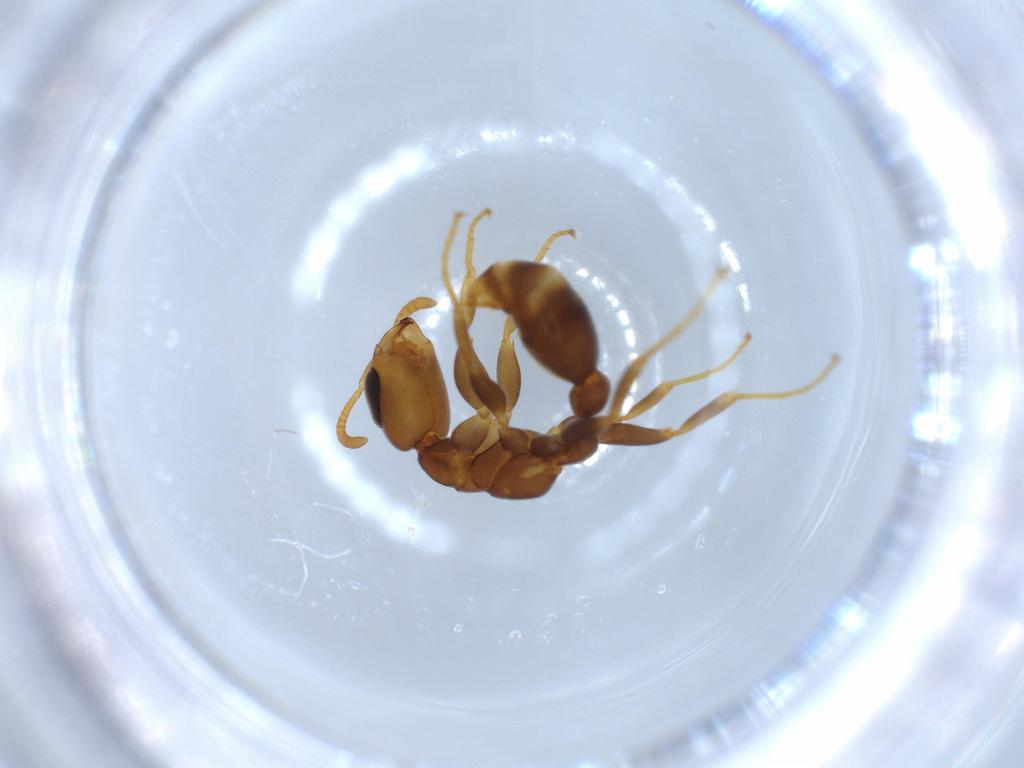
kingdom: Animalia
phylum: Arthropoda
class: Insecta
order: Hymenoptera
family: Formicidae
